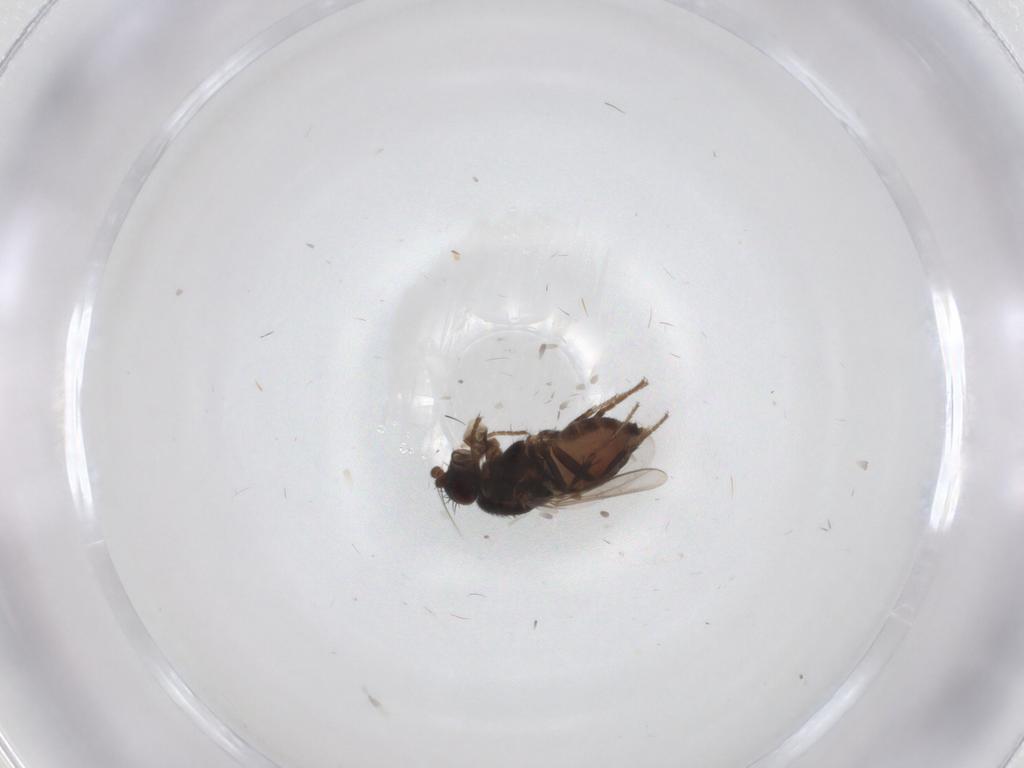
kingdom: Animalia
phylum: Arthropoda
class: Insecta
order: Diptera
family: Sphaeroceridae
